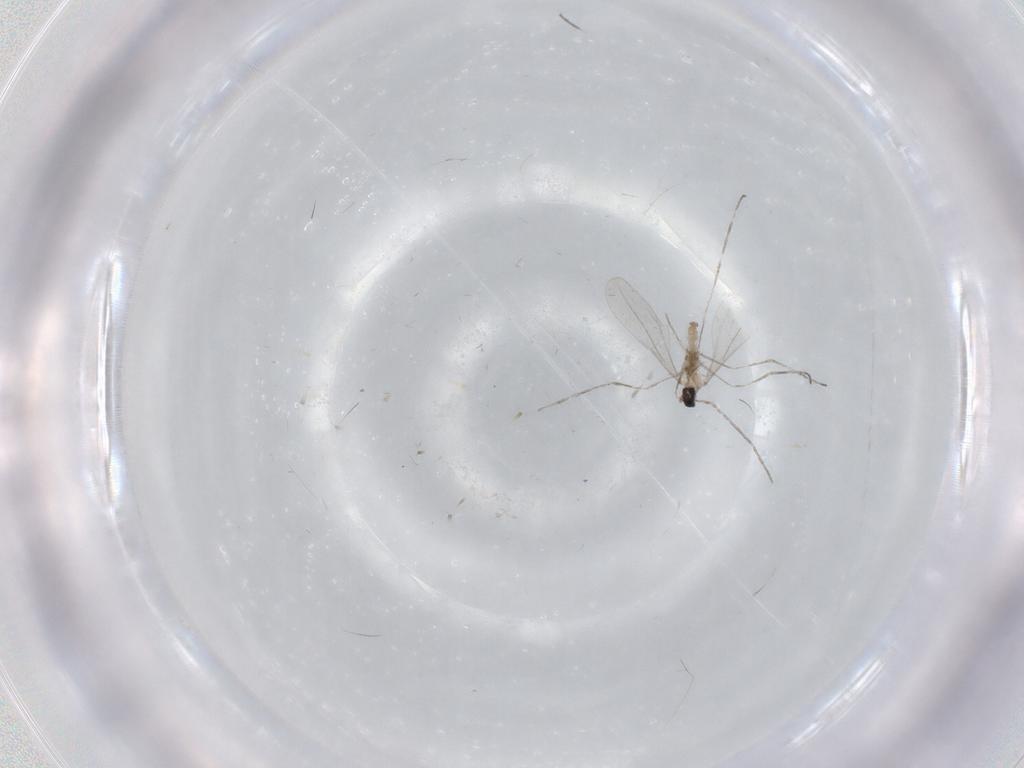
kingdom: Animalia
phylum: Arthropoda
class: Insecta
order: Diptera
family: Cecidomyiidae
